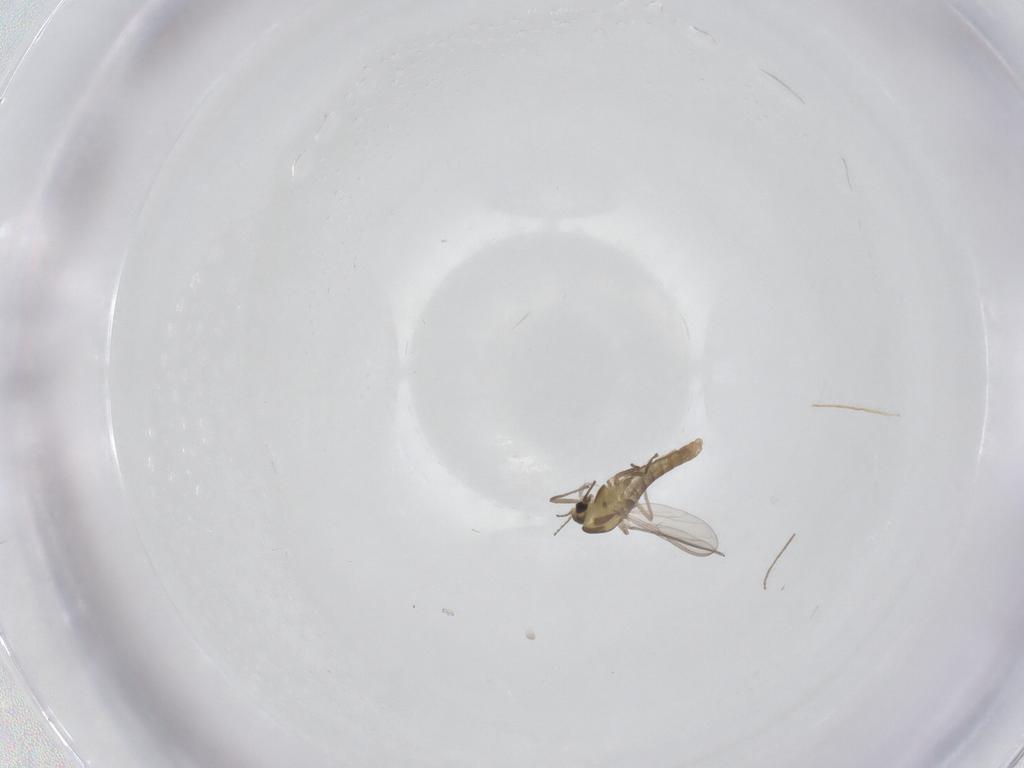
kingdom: Animalia
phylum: Arthropoda
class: Insecta
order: Diptera
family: Chironomidae
